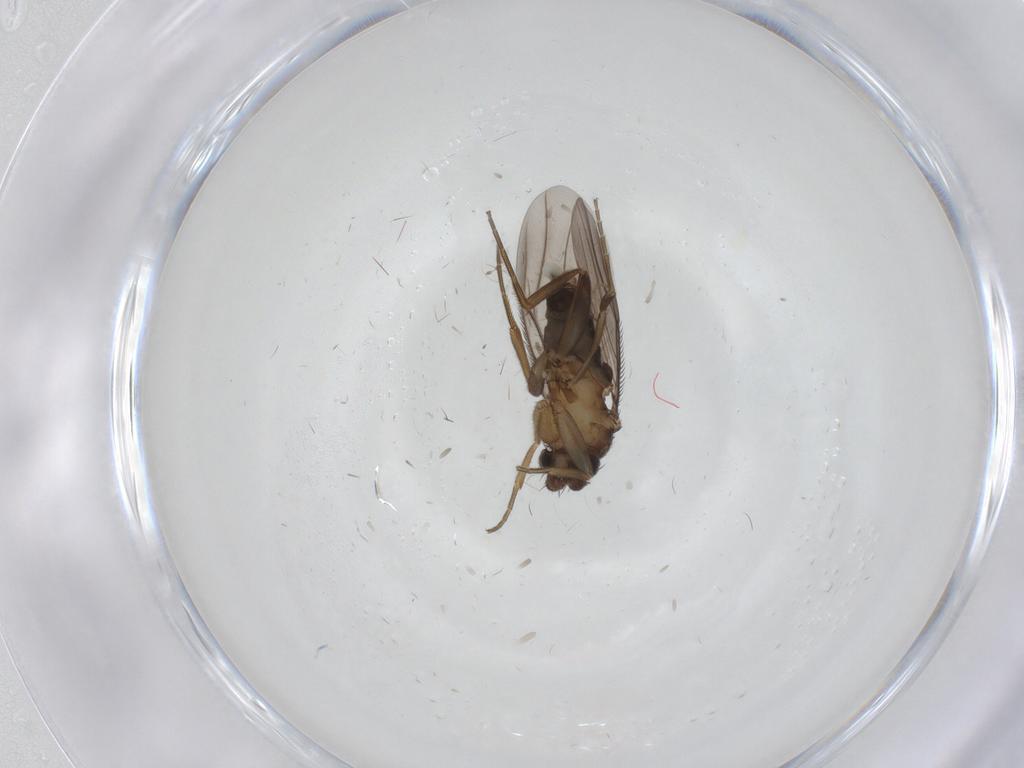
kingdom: Animalia
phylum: Arthropoda
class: Insecta
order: Diptera
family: Psychodidae
